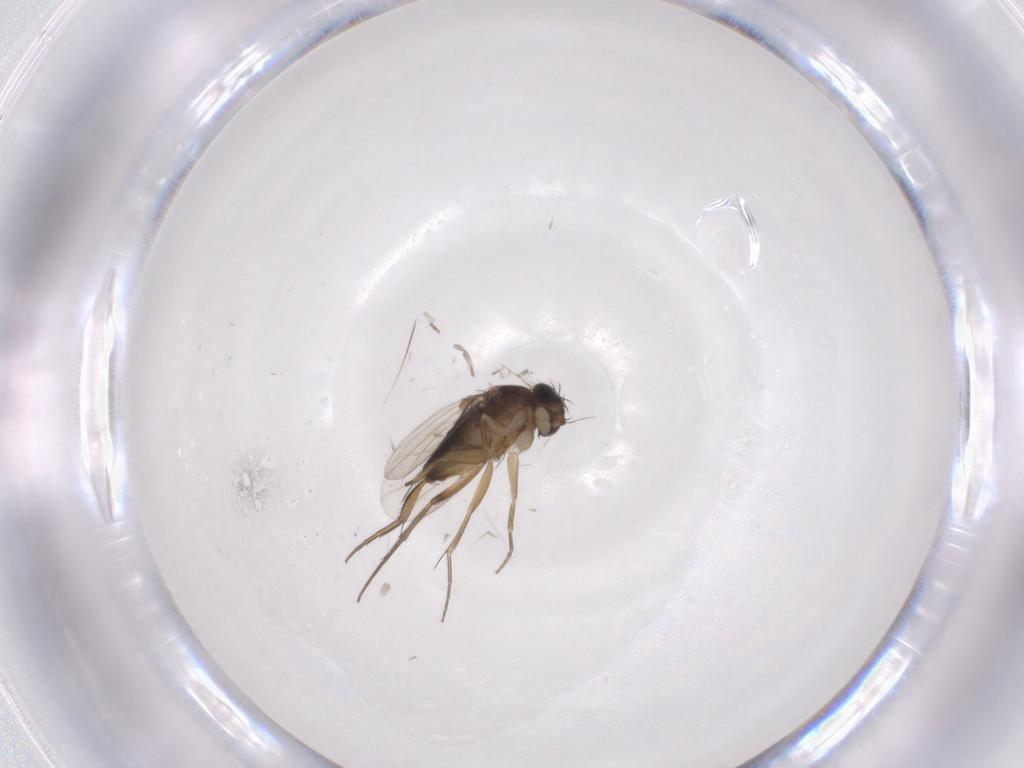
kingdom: Animalia
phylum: Arthropoda
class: Insecta
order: Diptera
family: Phoridae
